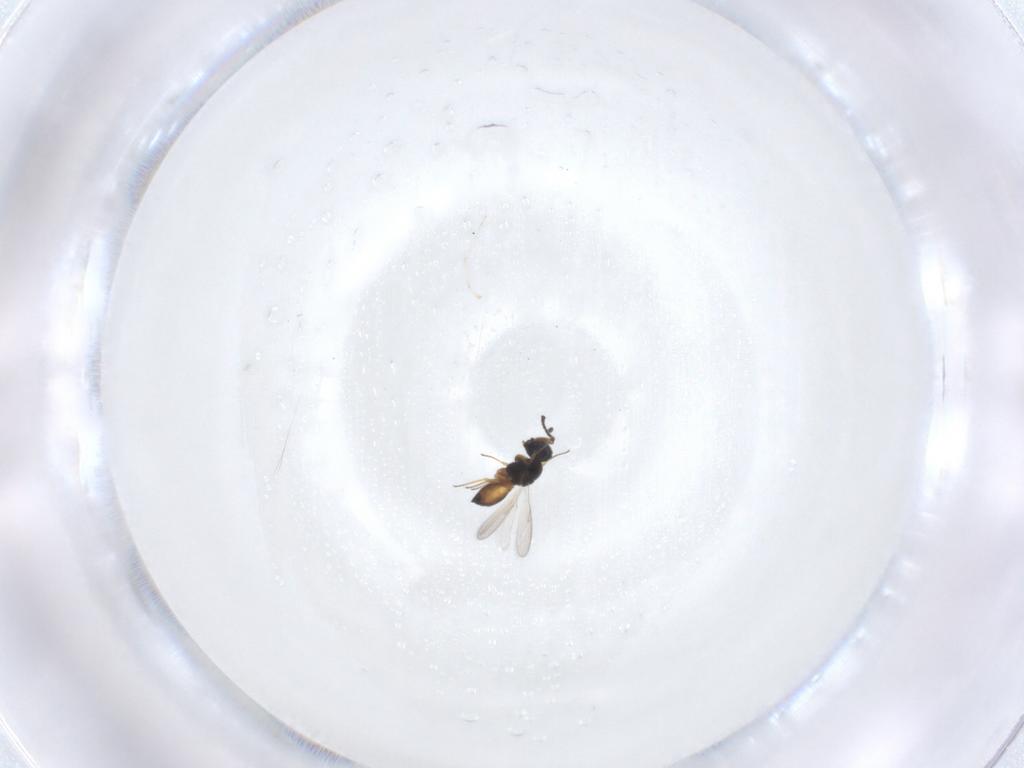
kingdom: Animalia
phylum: Arthropoda
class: Insecta
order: Hymenoptera
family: Scelionidae
